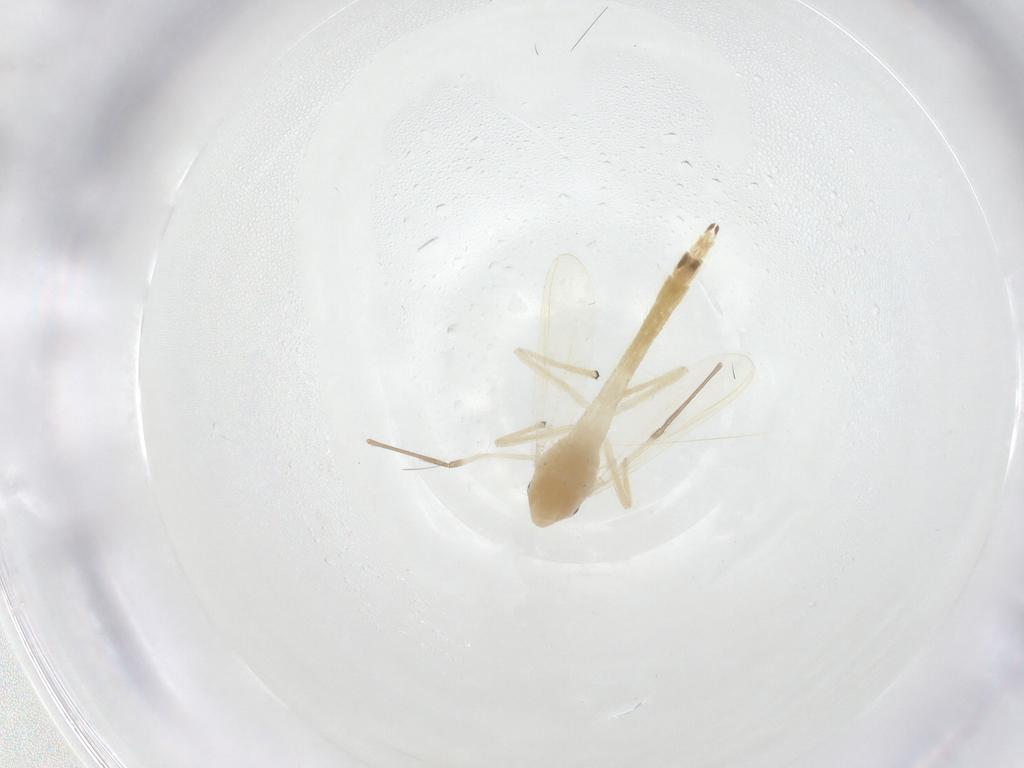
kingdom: Animalia
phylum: Arthropoda
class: Insecta
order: Diptera
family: Chironomidae
